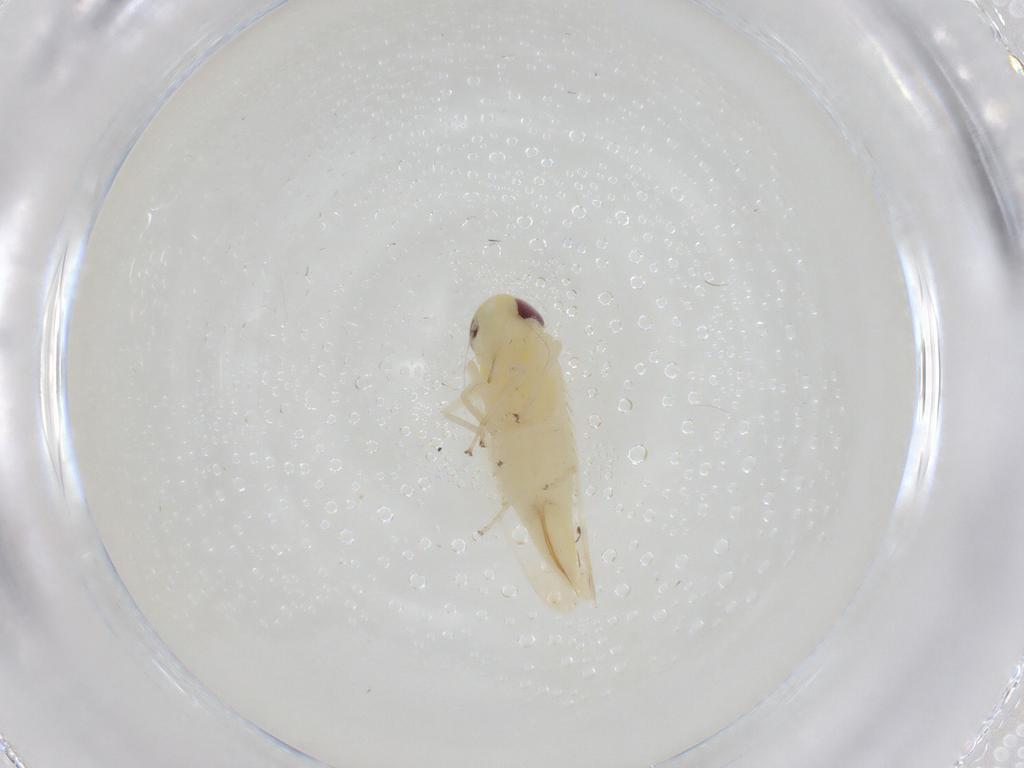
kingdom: Animalia
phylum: Arthropoda
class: Insecta
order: Hemiptera
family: Cicadellidae
